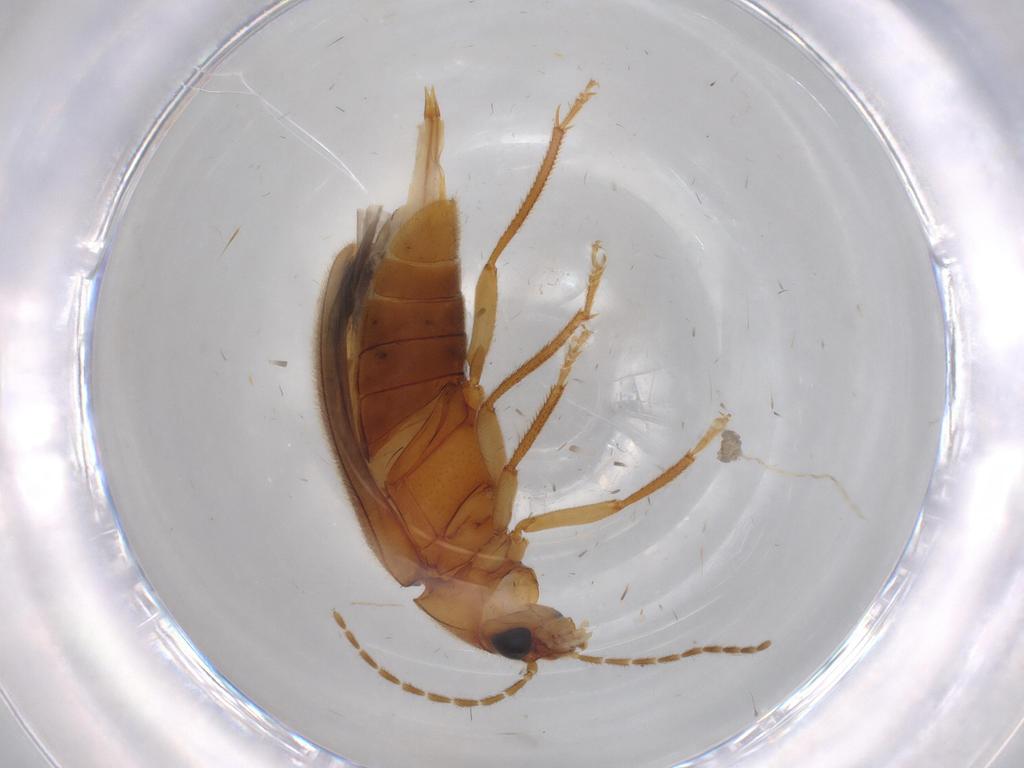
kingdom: Animalia
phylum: Arthropoda
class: Insecta
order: Coleoptera
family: Ptilodactylidae
